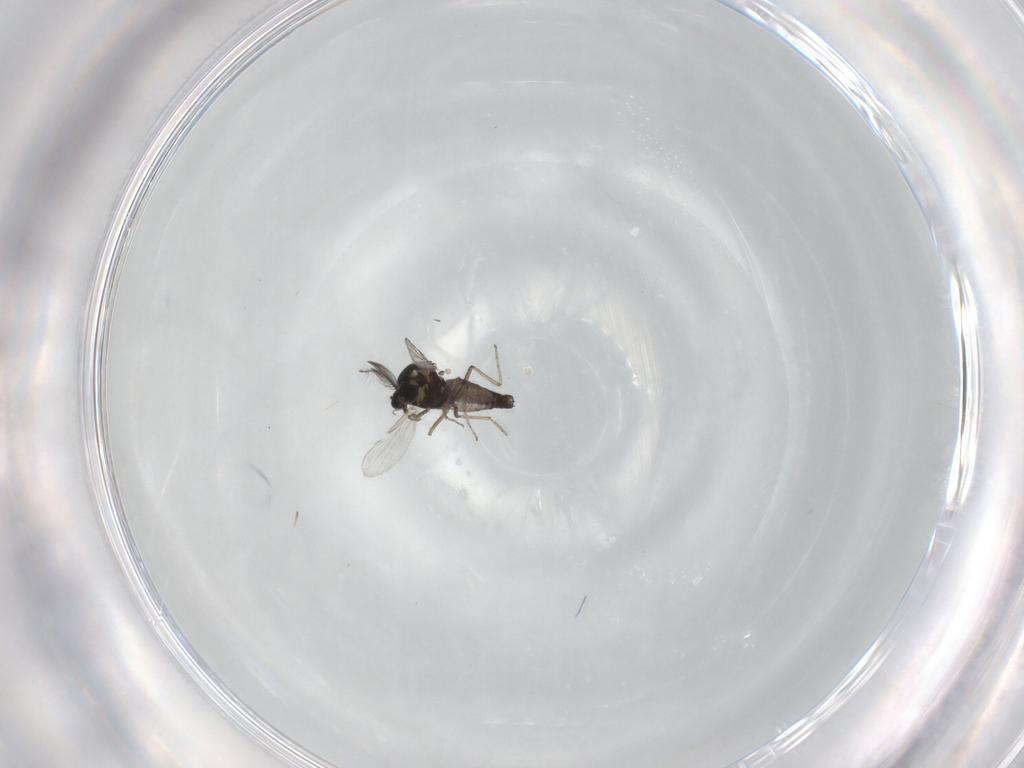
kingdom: Animalia
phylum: Arthropoda
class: Insecta
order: Diptera
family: Ceratopogonidae
